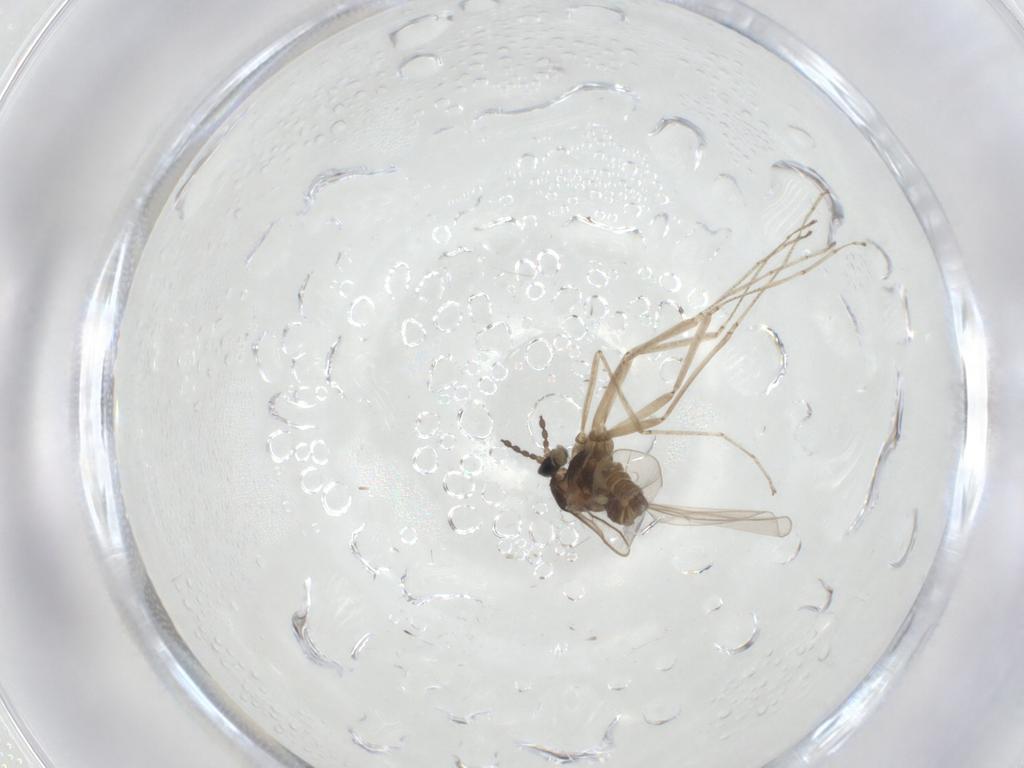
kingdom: Animalia
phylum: Arthropoda
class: Insecta
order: Diptera
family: Cecidomyiidae
